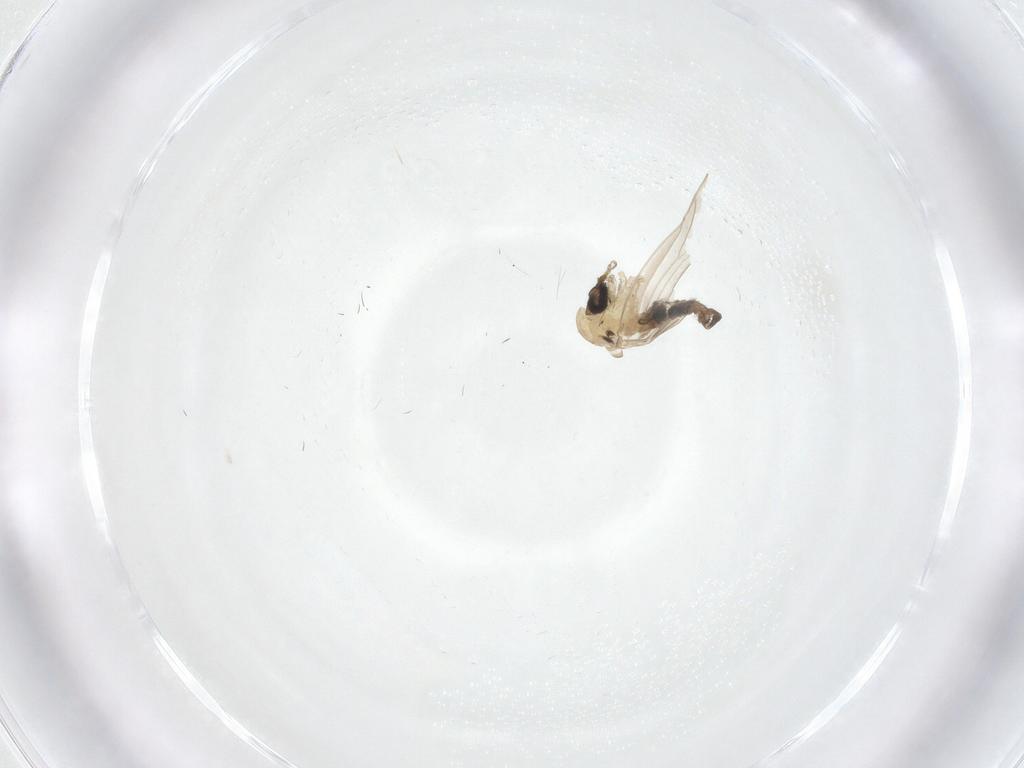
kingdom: Animalia
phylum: Arthropoda
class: Insecta
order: Diptera
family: Psychodidae
